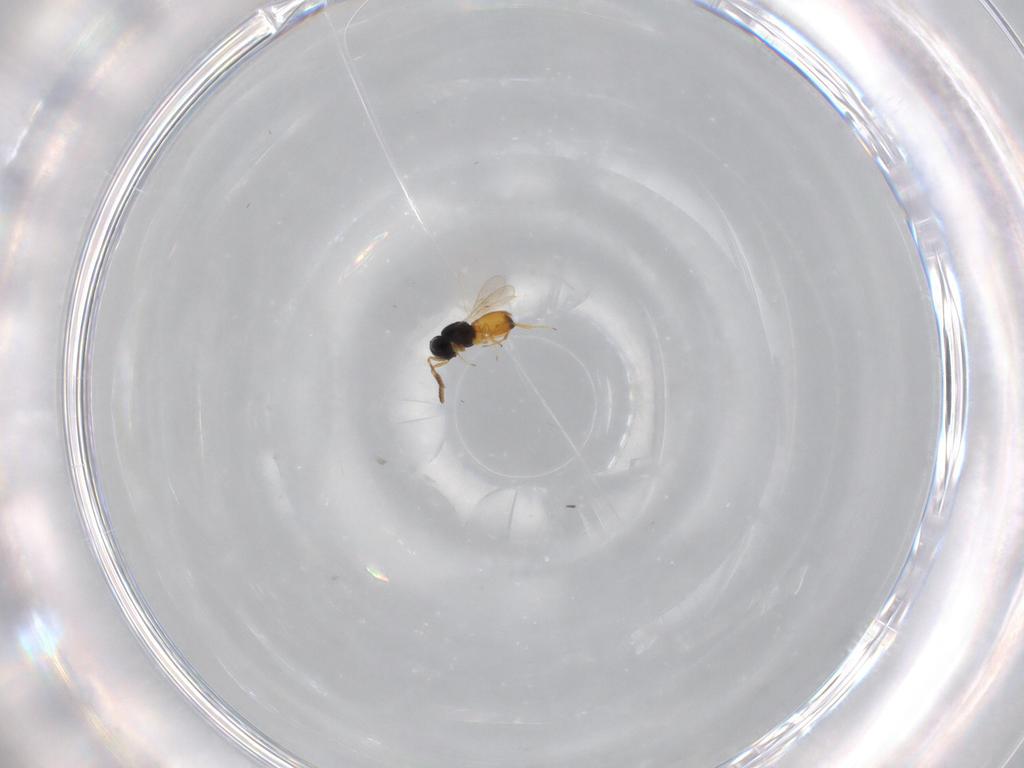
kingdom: Animalia
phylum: Arthropoda
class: Insecta
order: Hymenoptera
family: Scelionidae
